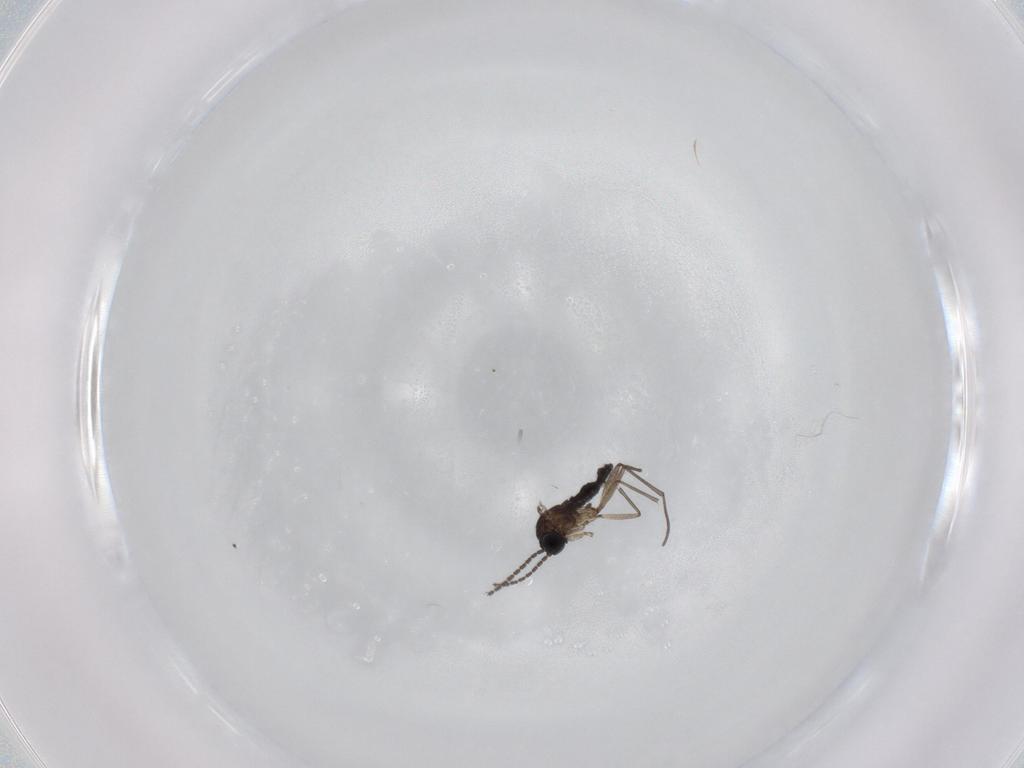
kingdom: Animalia
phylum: Arthropoda
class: Insecta
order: Diptera
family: Sciaridae
